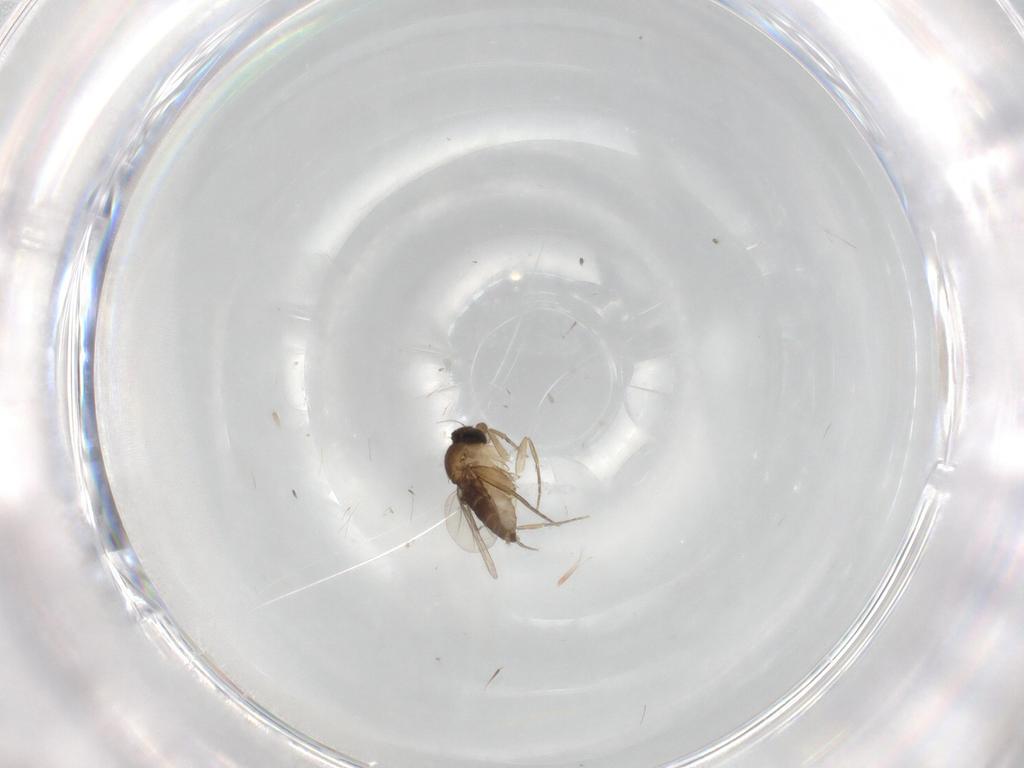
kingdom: Animalia
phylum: Arthropoda
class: Insecta
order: Diptera
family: Phoridae
